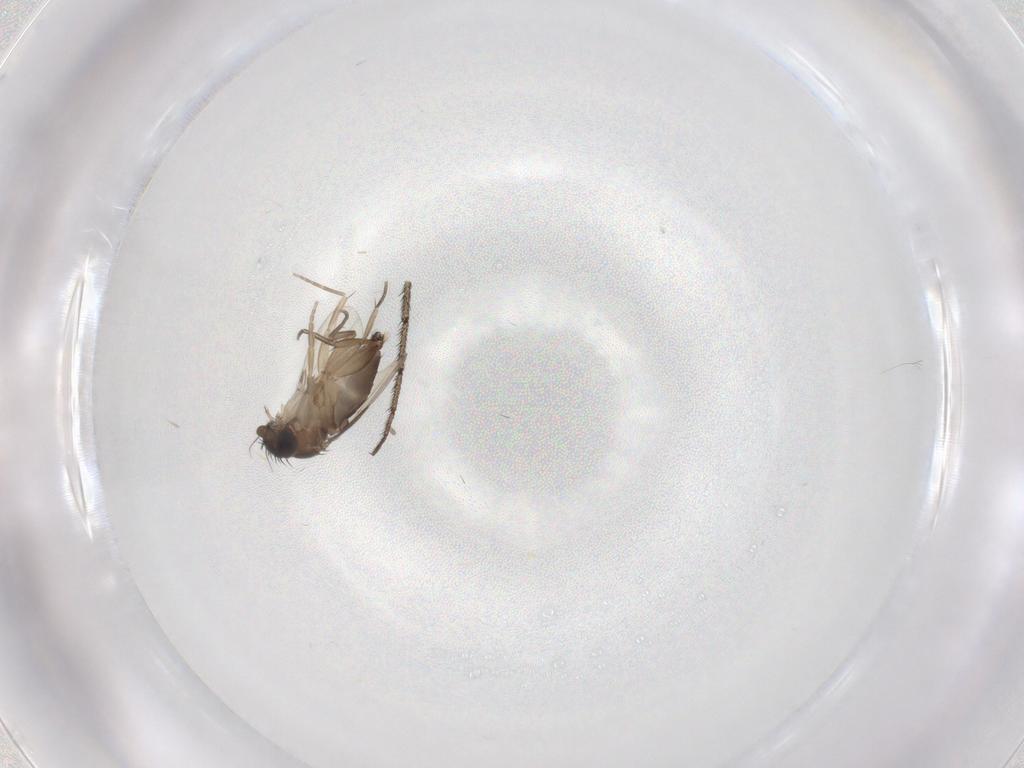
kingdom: Animalia
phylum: Arthropoda
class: Insecta
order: Diptera
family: Phoridae
